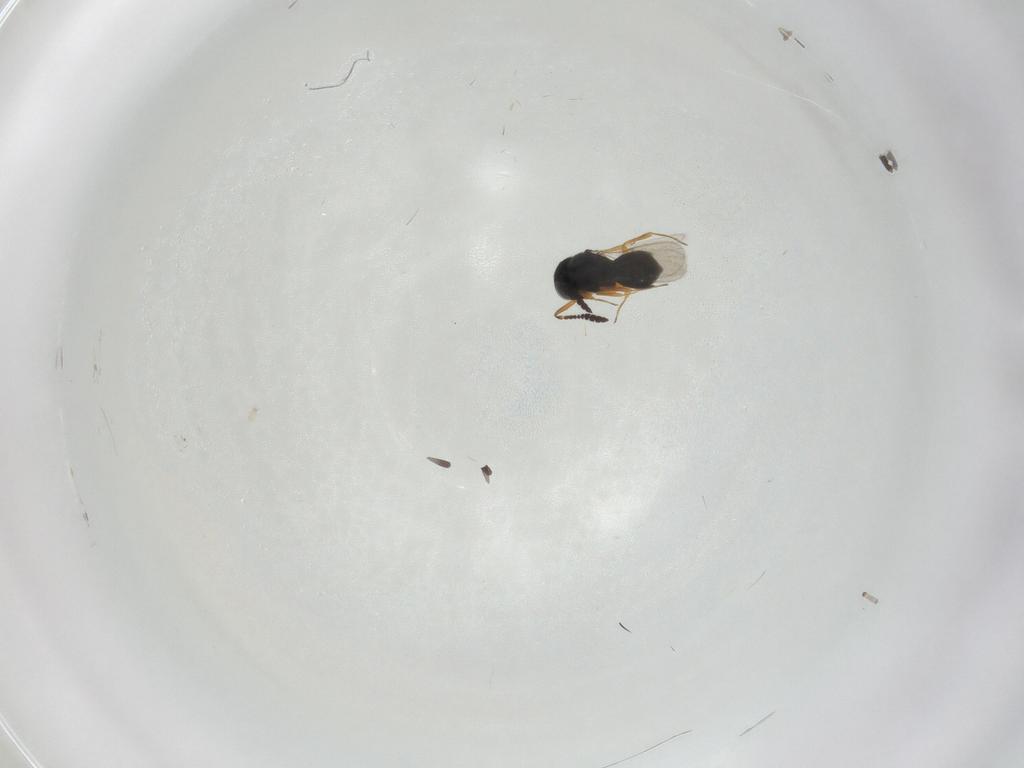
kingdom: Animalia
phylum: Arthropoda
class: Insecta
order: Hymenoptera
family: Scelionidae
